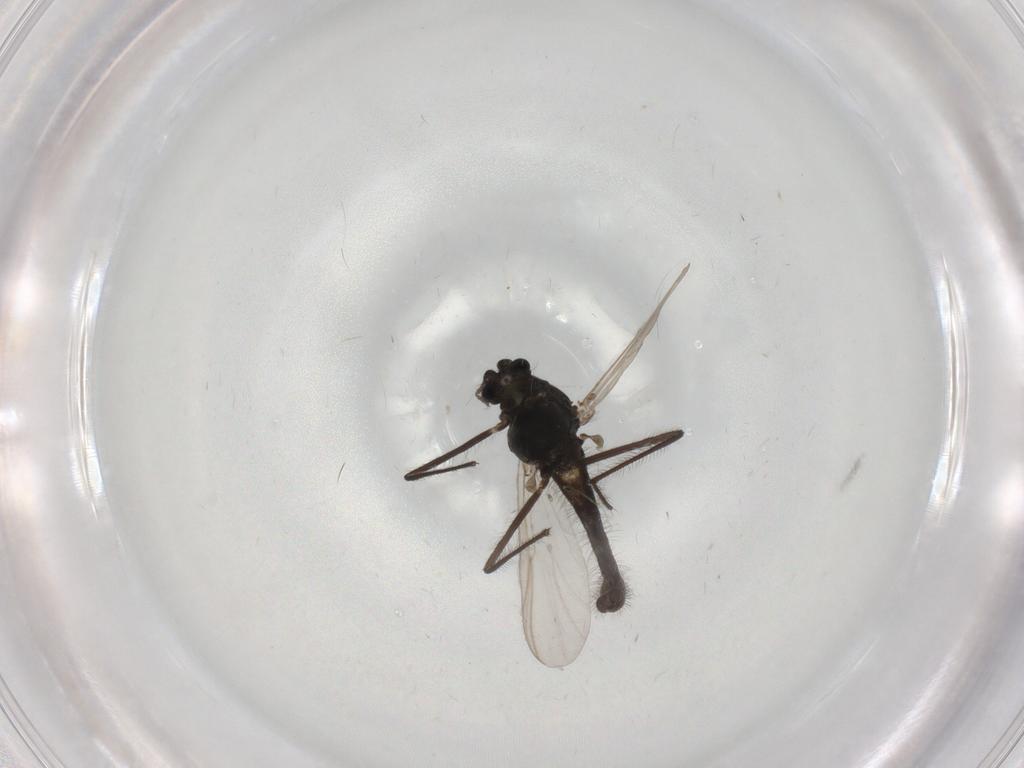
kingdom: Animalia
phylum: Arthropoda
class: Insecta
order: Diptera
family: Chironomidae
